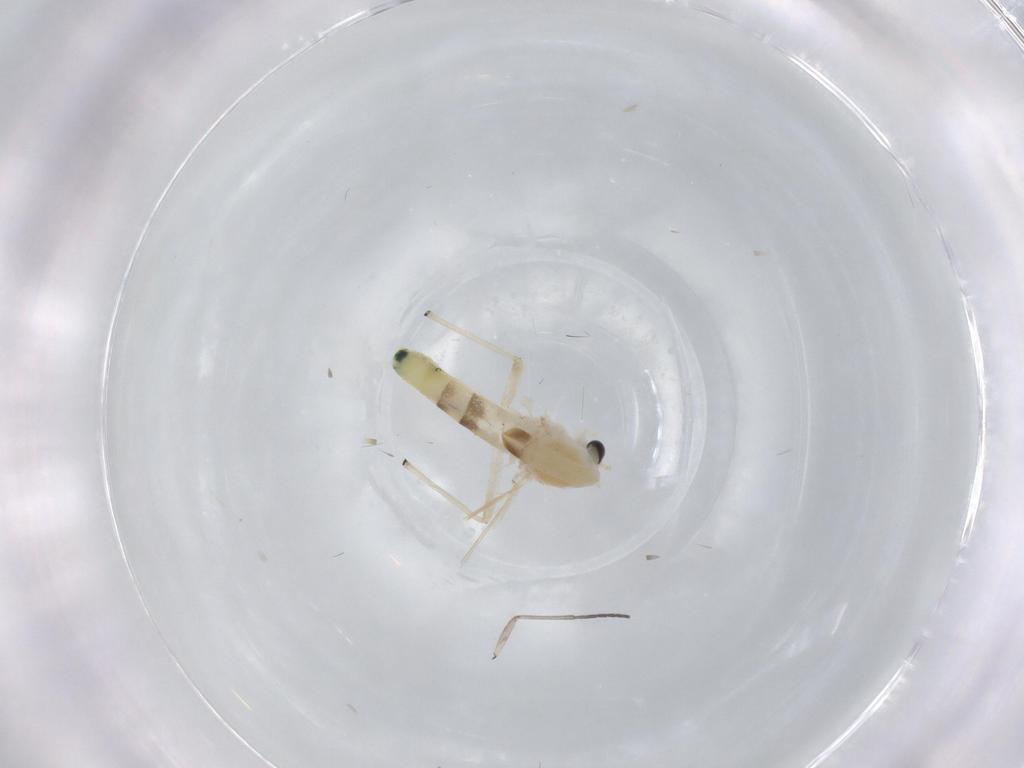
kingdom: Animalia
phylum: Arthropoda
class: Insecta
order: Diptera
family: Chironomidae
